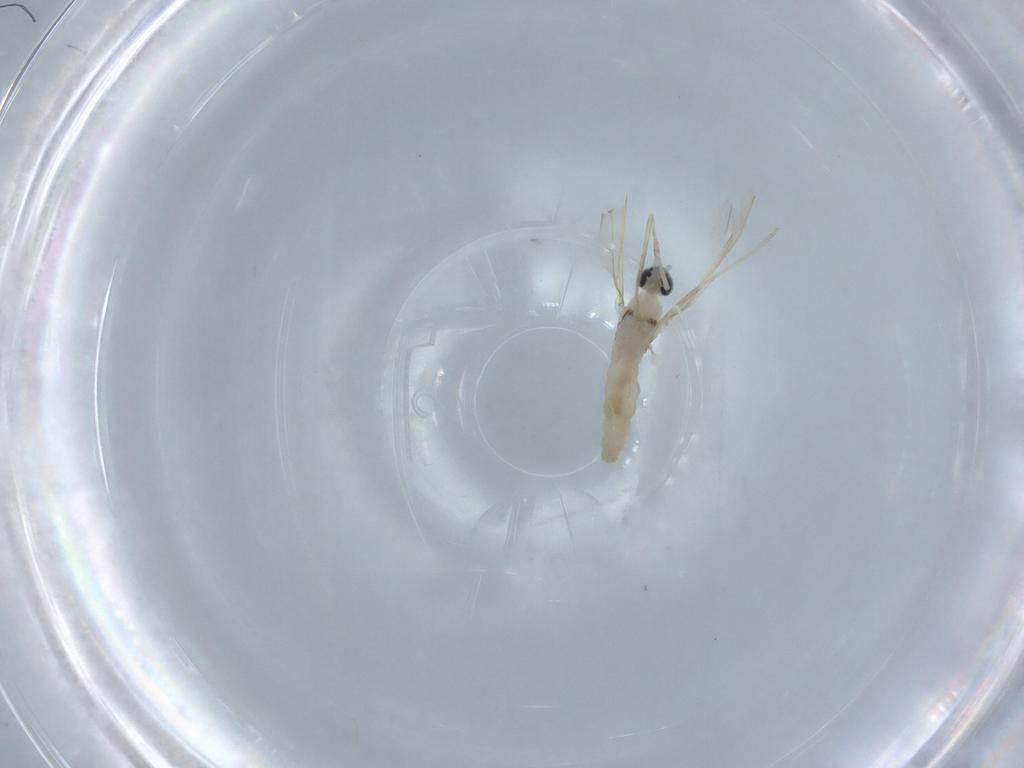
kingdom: Animalia
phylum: Arthropoda
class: Insecta
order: Diptera
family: Cecidomyiidae
